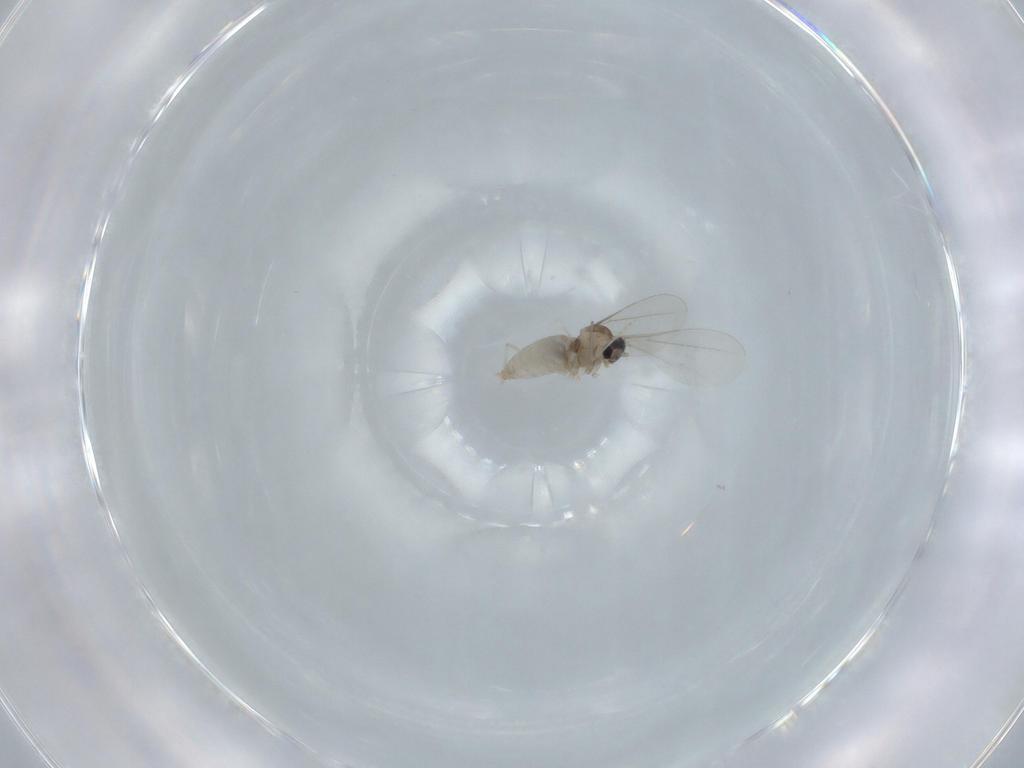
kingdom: Animalia
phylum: Arthropoda
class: Insecta
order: Diptera
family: Cecidomyiidae
